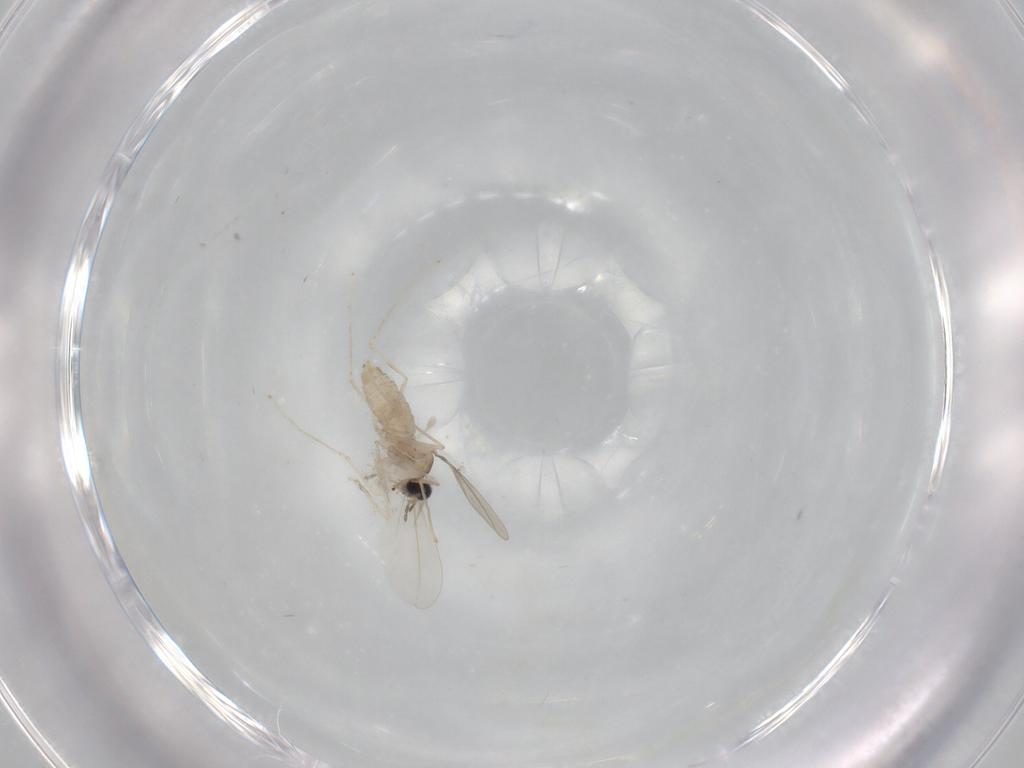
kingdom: Animalia
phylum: Arthropoda
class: Insecta
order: Diptera
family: Cecidomyiidae
